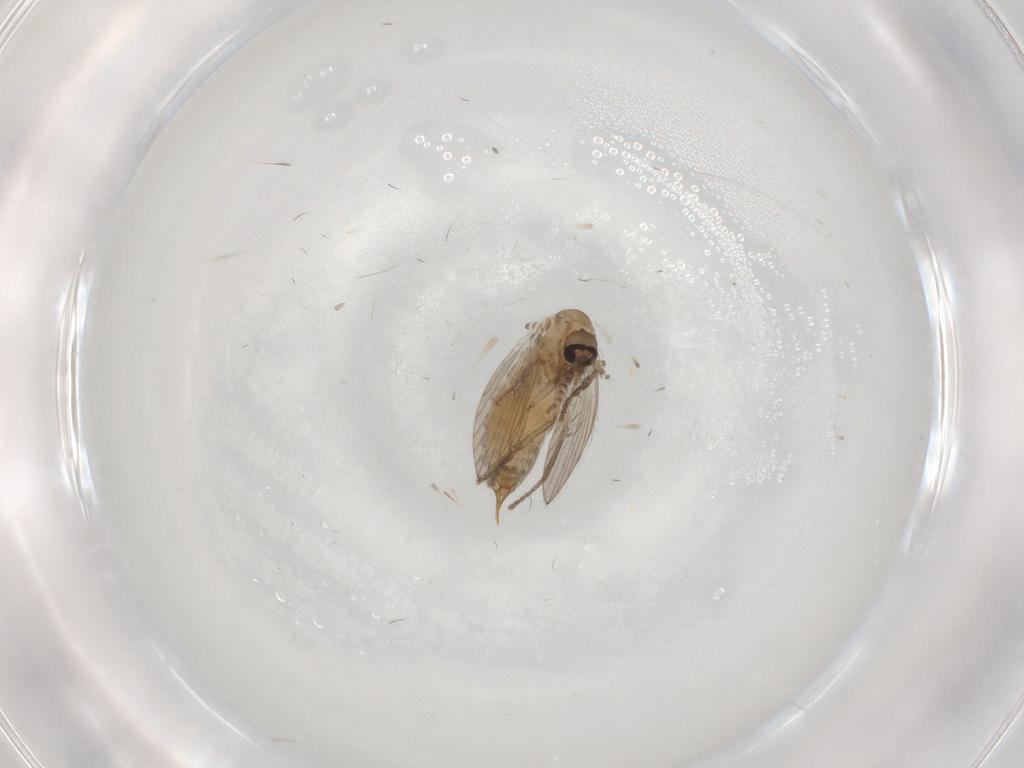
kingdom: Animalia
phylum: Arthropoda
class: Insecta
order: Diptera
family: Psychodidae
